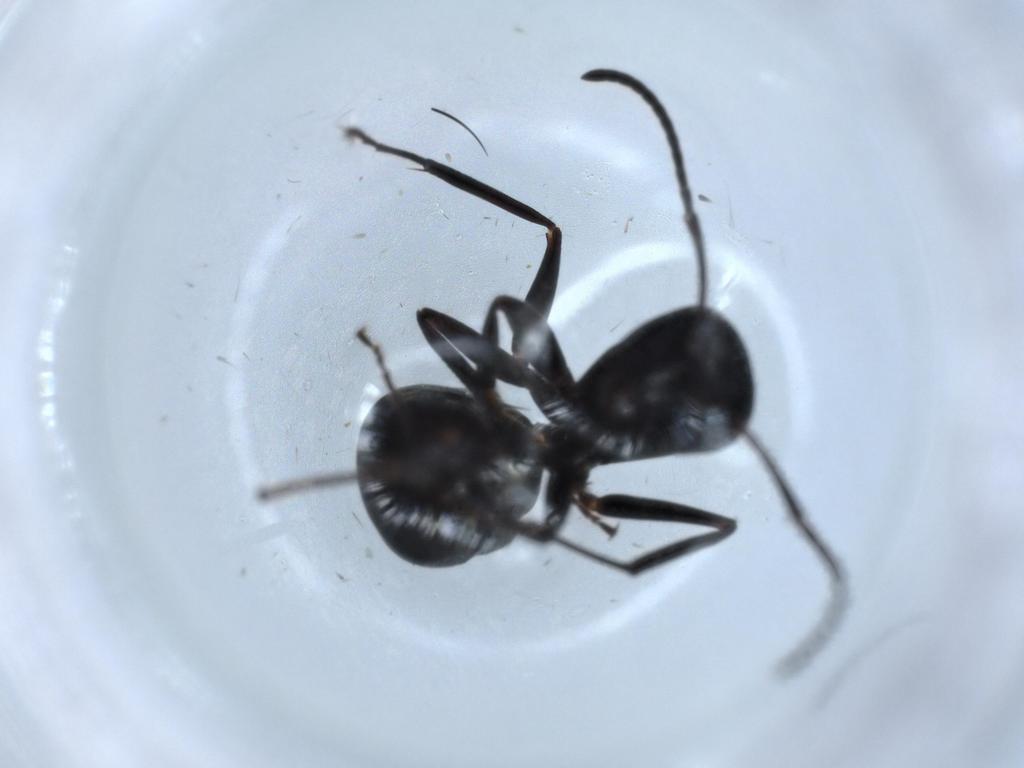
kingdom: Animalia
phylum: Arthropoda
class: Insecta
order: Hymenoptera
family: Formicidae
